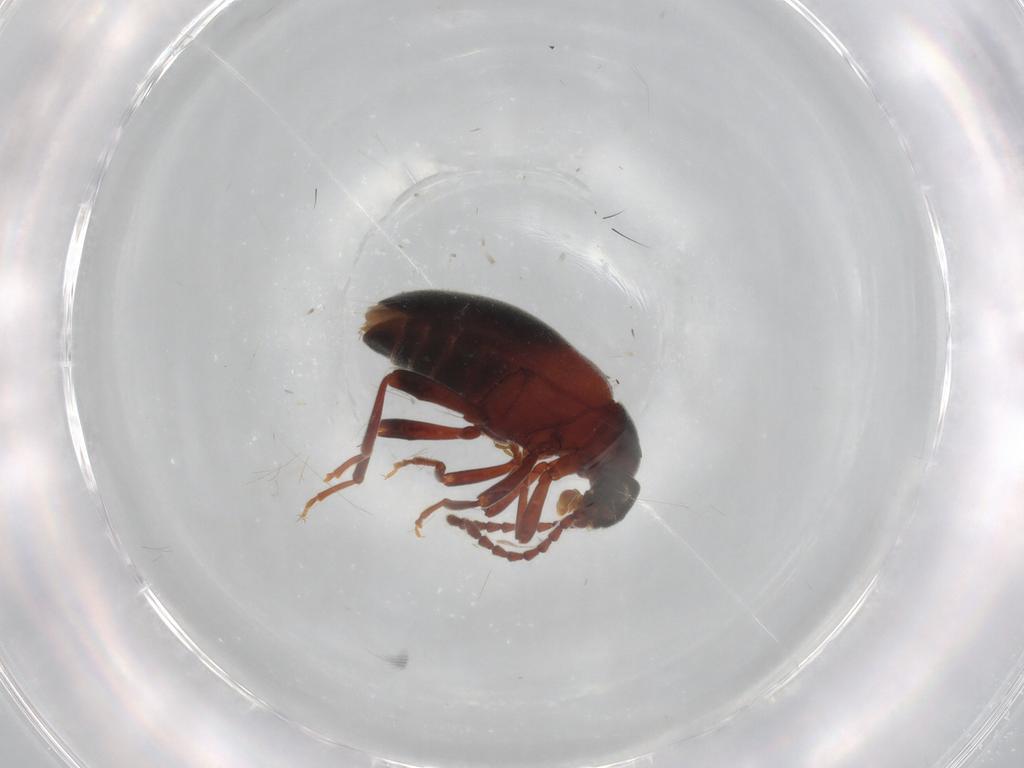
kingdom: Animalia
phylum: Arthropoda
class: Insecta
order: Coleoptera
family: Aderidae
